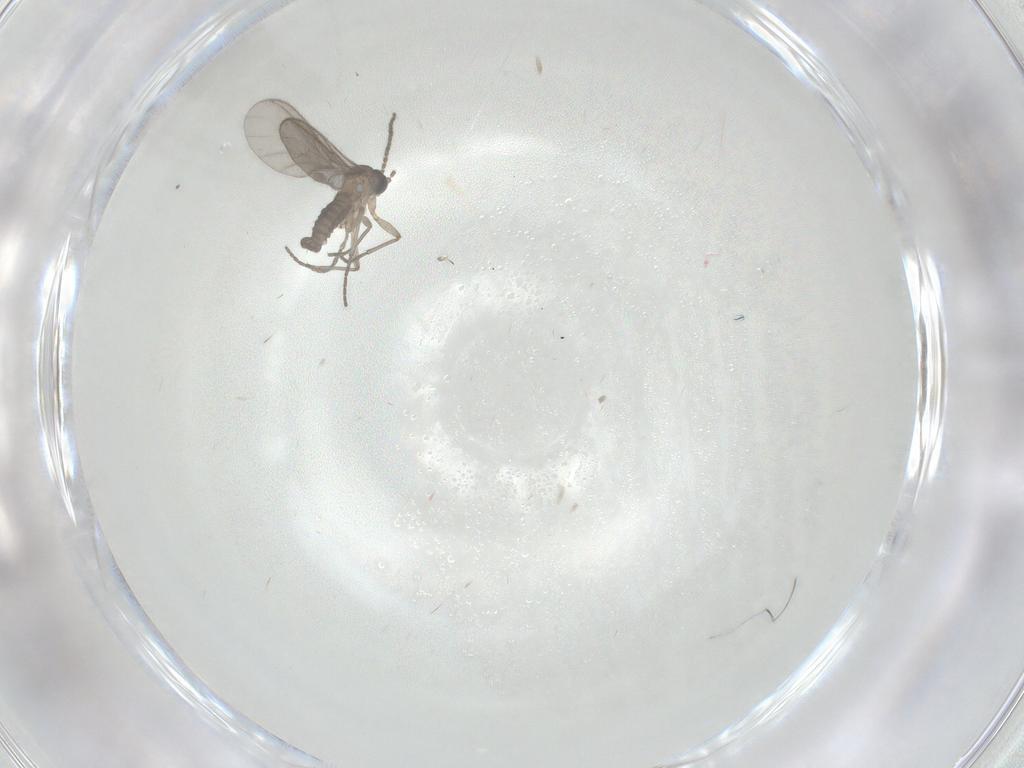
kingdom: Animalia
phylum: Arthropoda
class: Insecta
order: Diptera
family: Sciaridae
